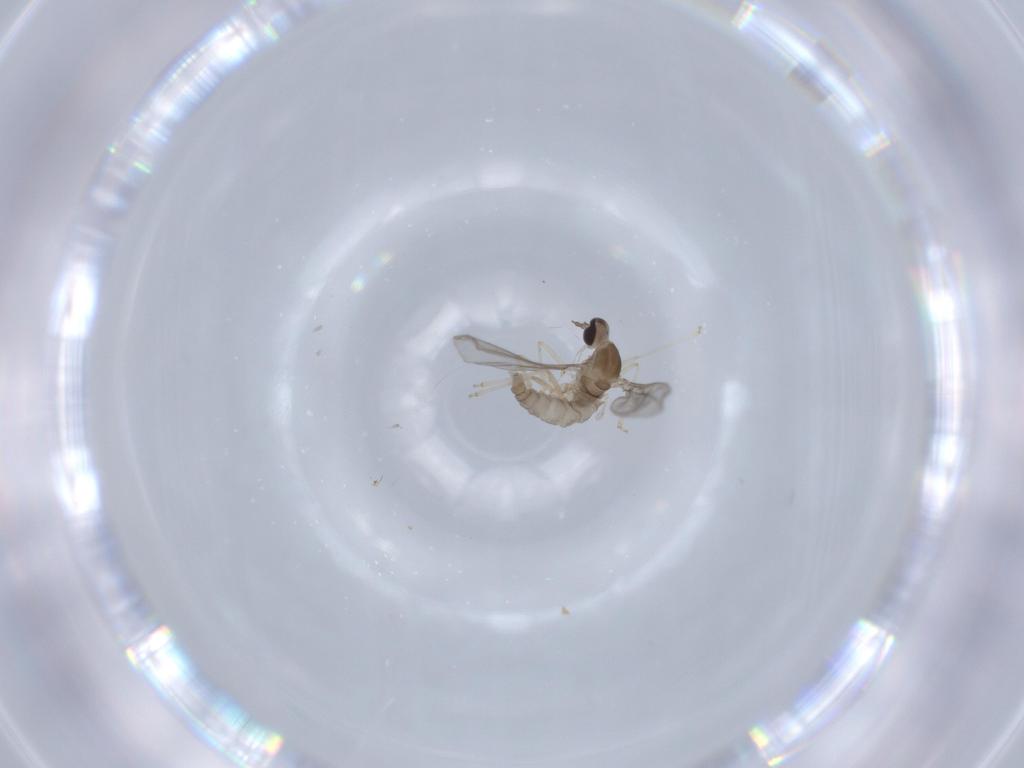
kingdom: Animalia
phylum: Arthropoda
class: Insecta
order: Diptera
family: Cecidomyiidae
